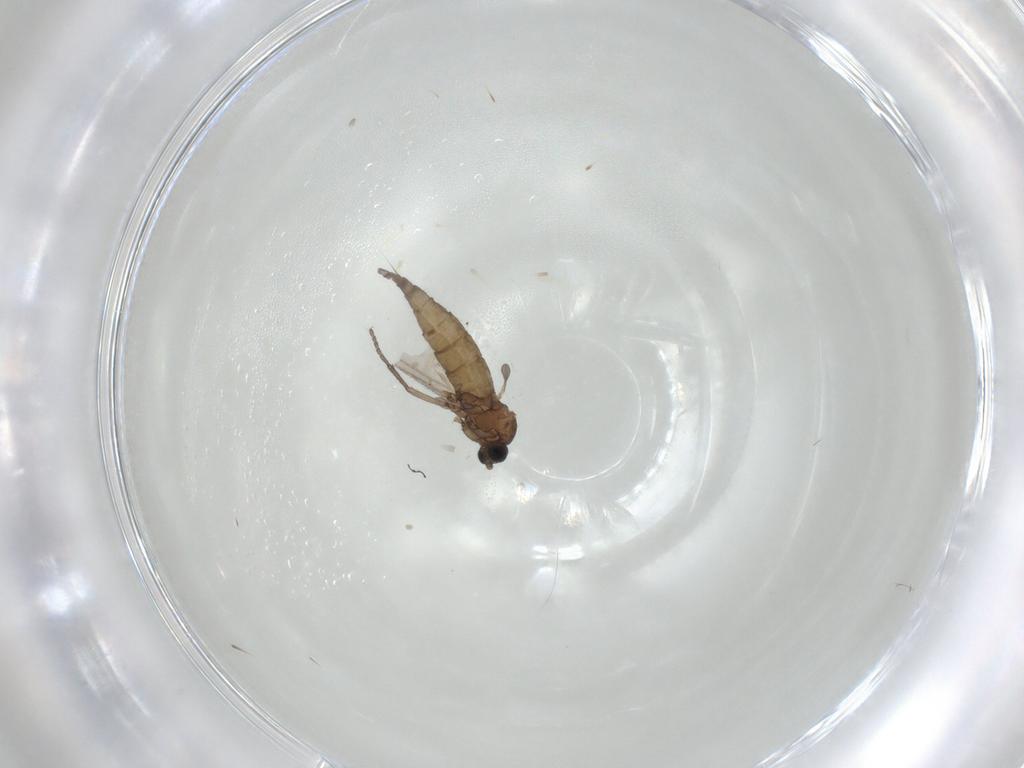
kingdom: Animalia
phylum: Arthropoda
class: Insecta
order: Diptera
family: Sciaridae
